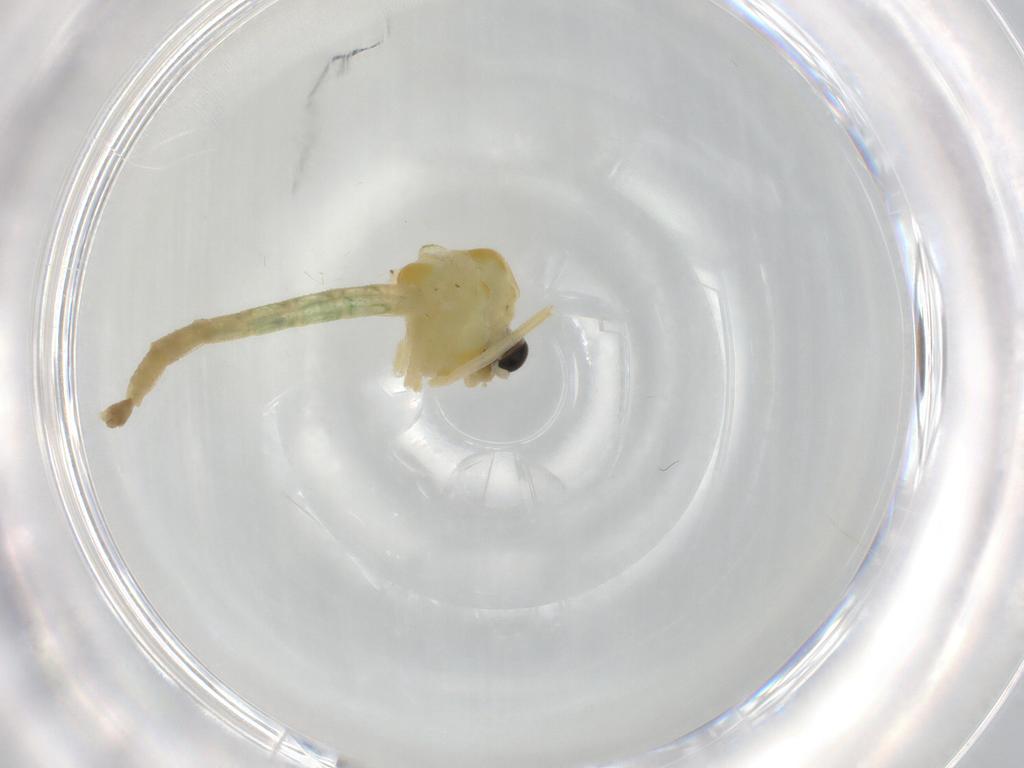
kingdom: Animalia
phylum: Arthropoda
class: Insecta
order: Diptera
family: Chironomidae
